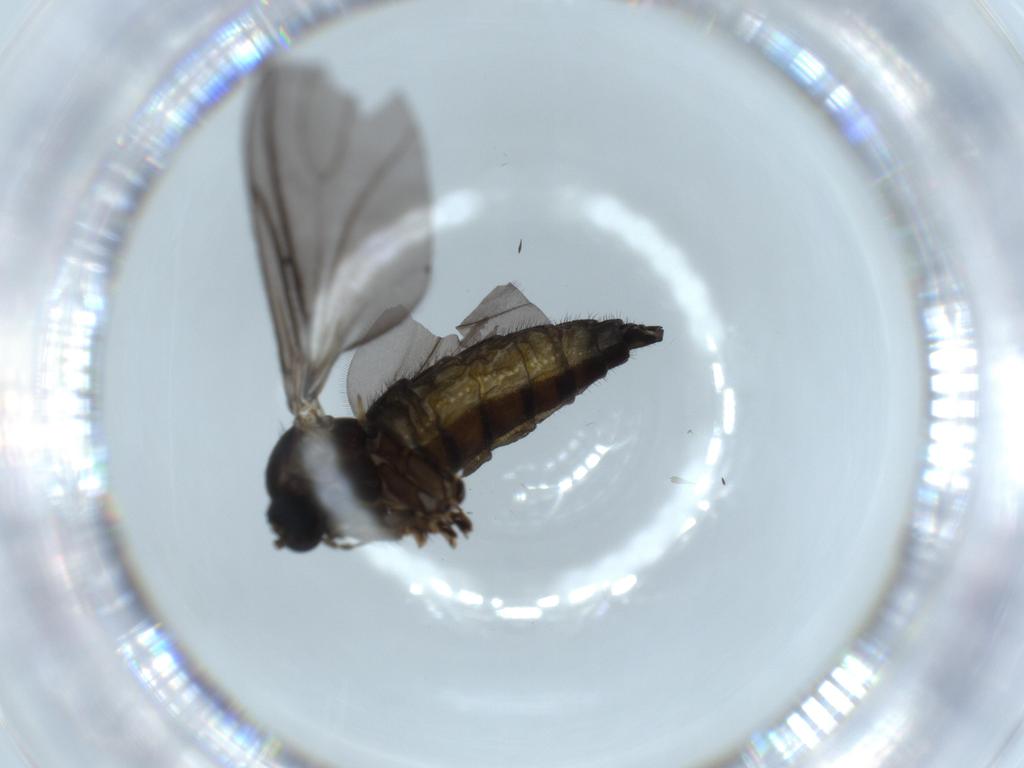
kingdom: Animalia
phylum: Arthropoda
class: Insecta
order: Diptera
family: Sciaridae
